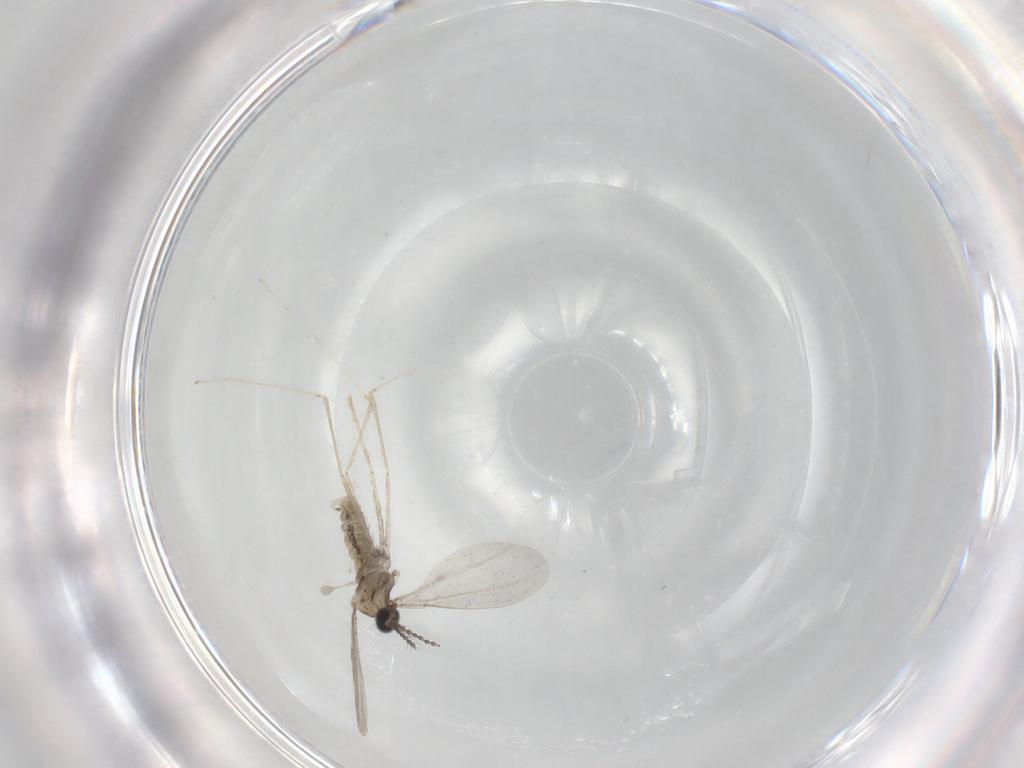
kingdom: Animalia
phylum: Arthropoda
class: Insecta
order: Diptera
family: Cecidomyiidae
